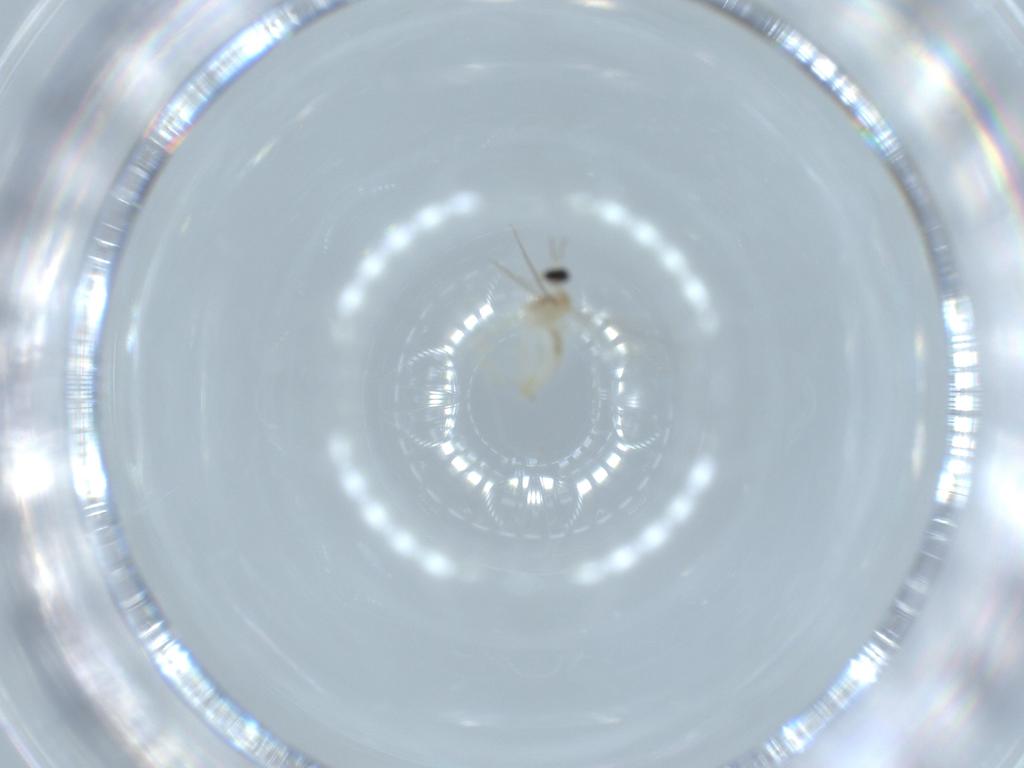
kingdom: Animalia
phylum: Arthropoda
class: Insecta
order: Diptera
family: Cecidomyiidae
